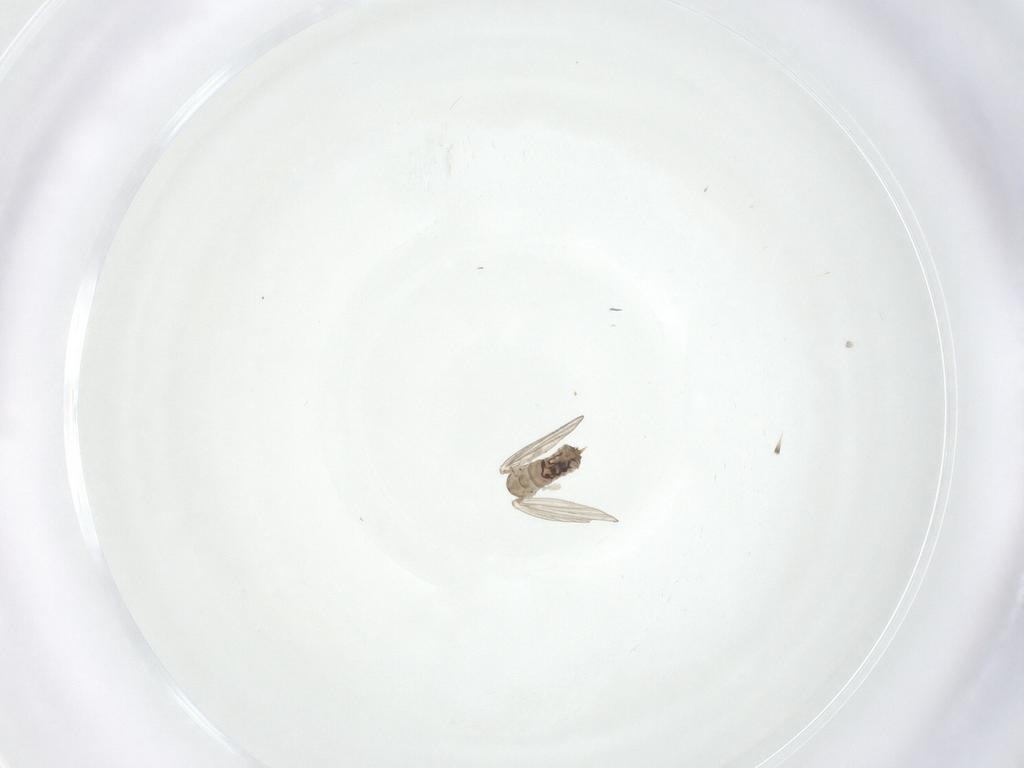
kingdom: Animalia
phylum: Arthropoda
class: Insecta
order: Diptera
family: Psychodidae
